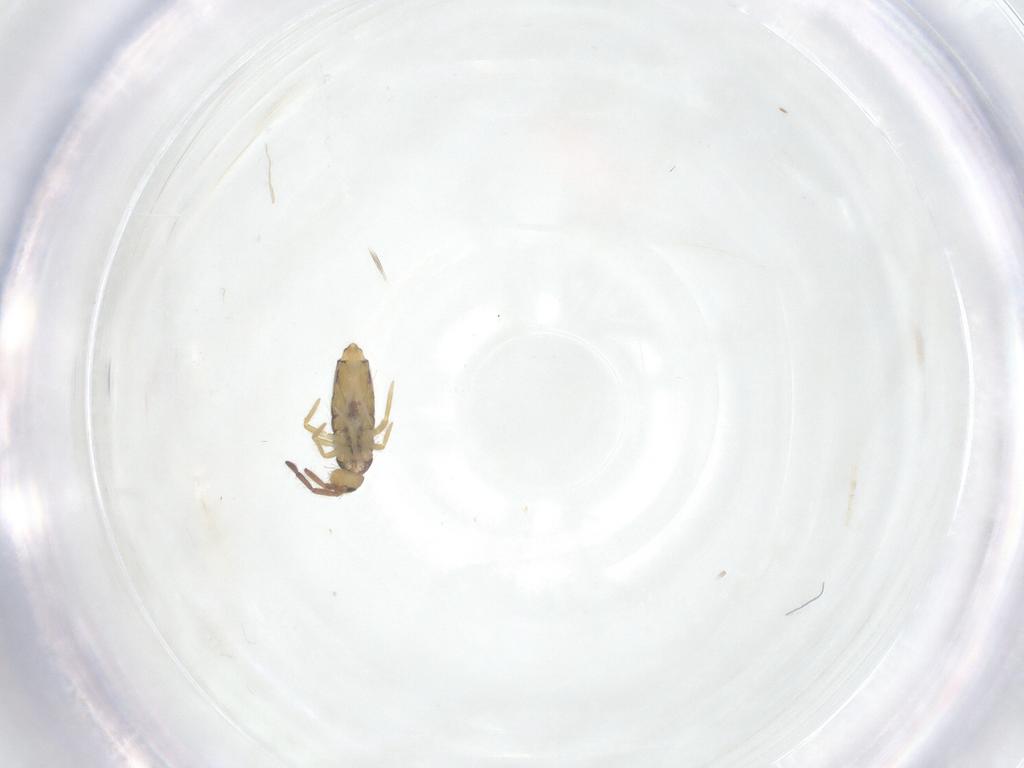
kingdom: Animalia
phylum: Arthropoda
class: Collembola
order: Entomobryomorpha
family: Entomobryidae
